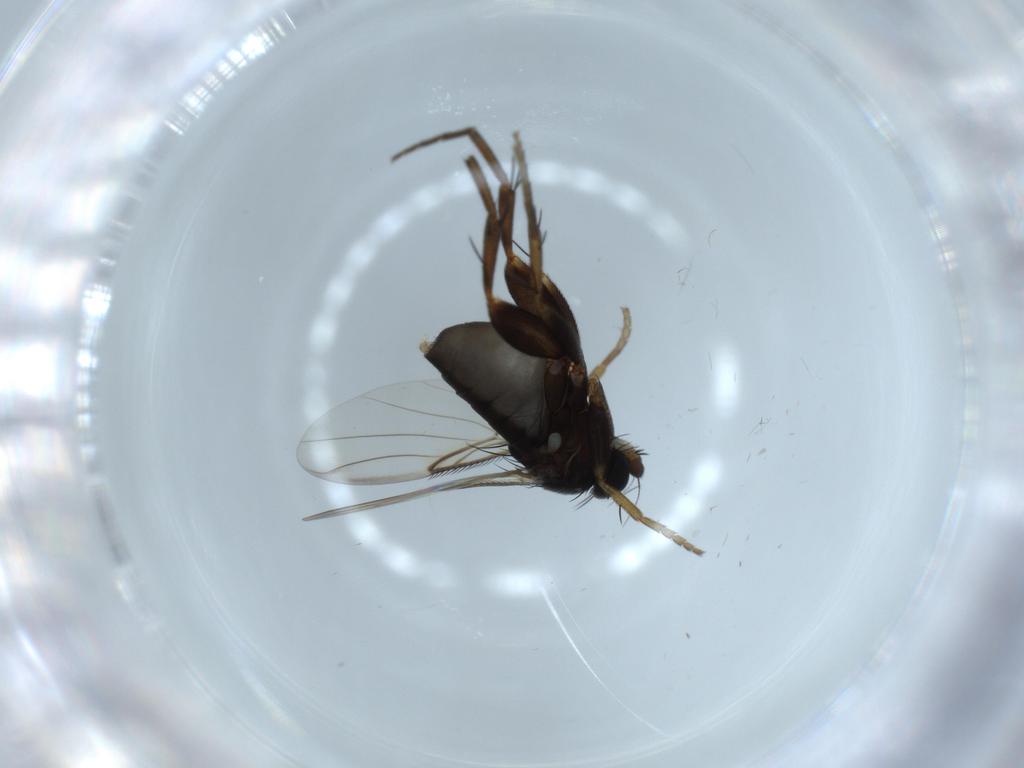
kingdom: Animalia
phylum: Arthropoda
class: Insecta
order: Diptera
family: Phoridae
